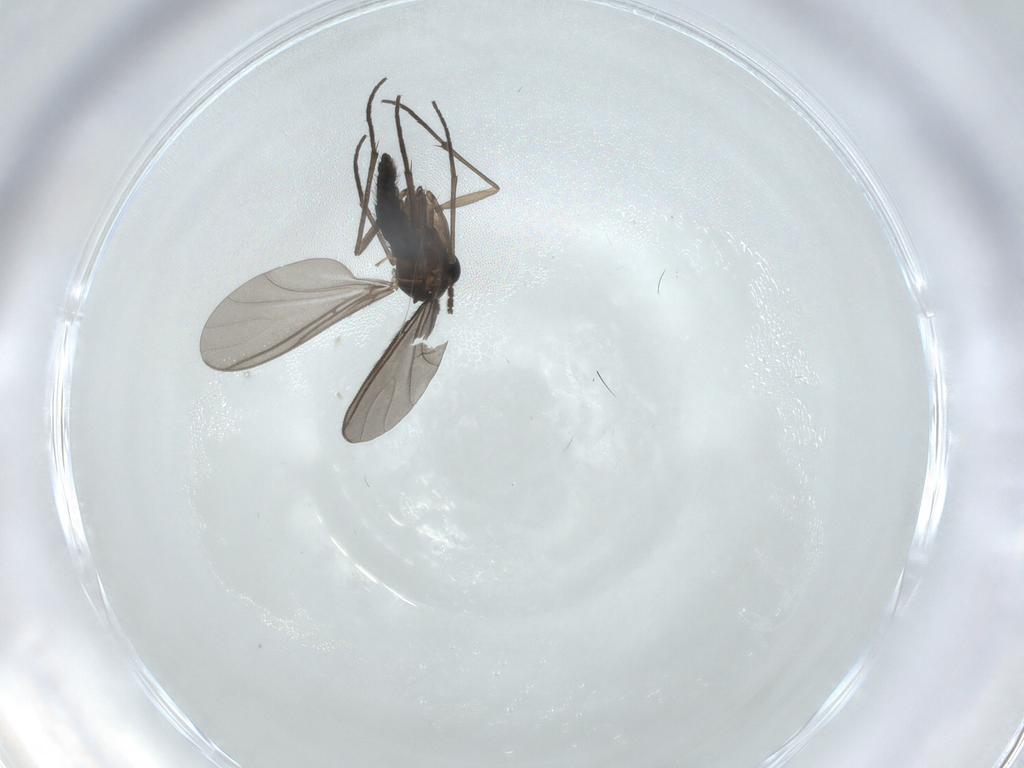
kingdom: Animalia
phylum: Arthropoda
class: Insecta
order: Diptera
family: Sciaridae
